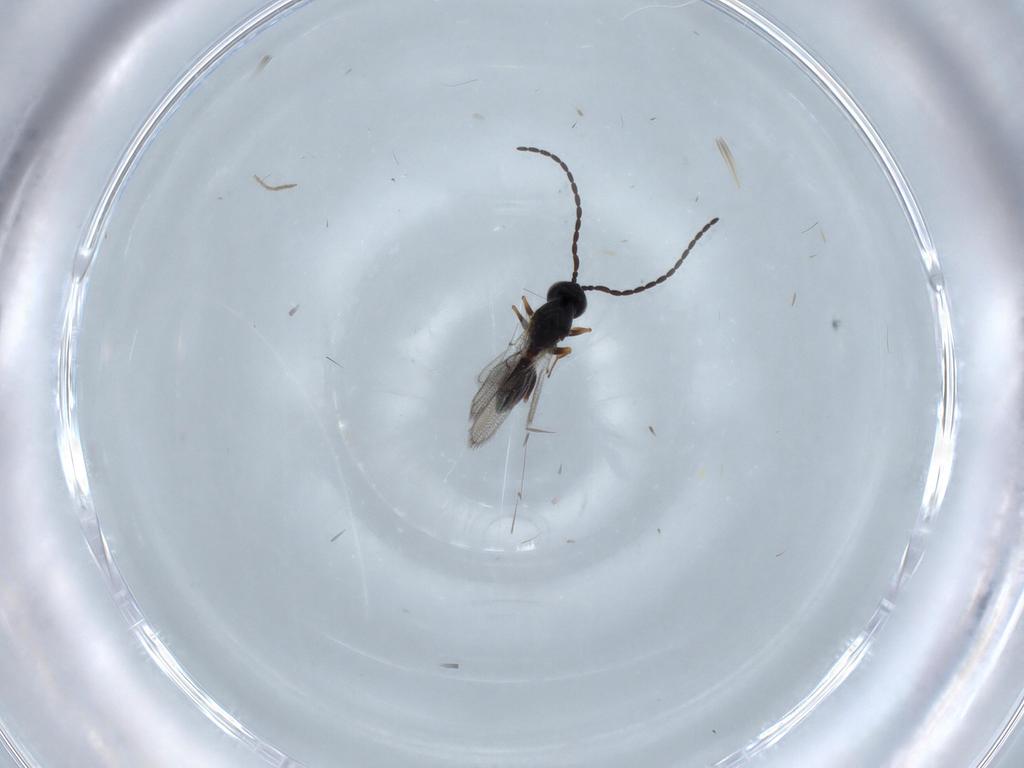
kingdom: Animalia
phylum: Arthropoda
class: Insecta
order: Hymenoptera
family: Figitidae
